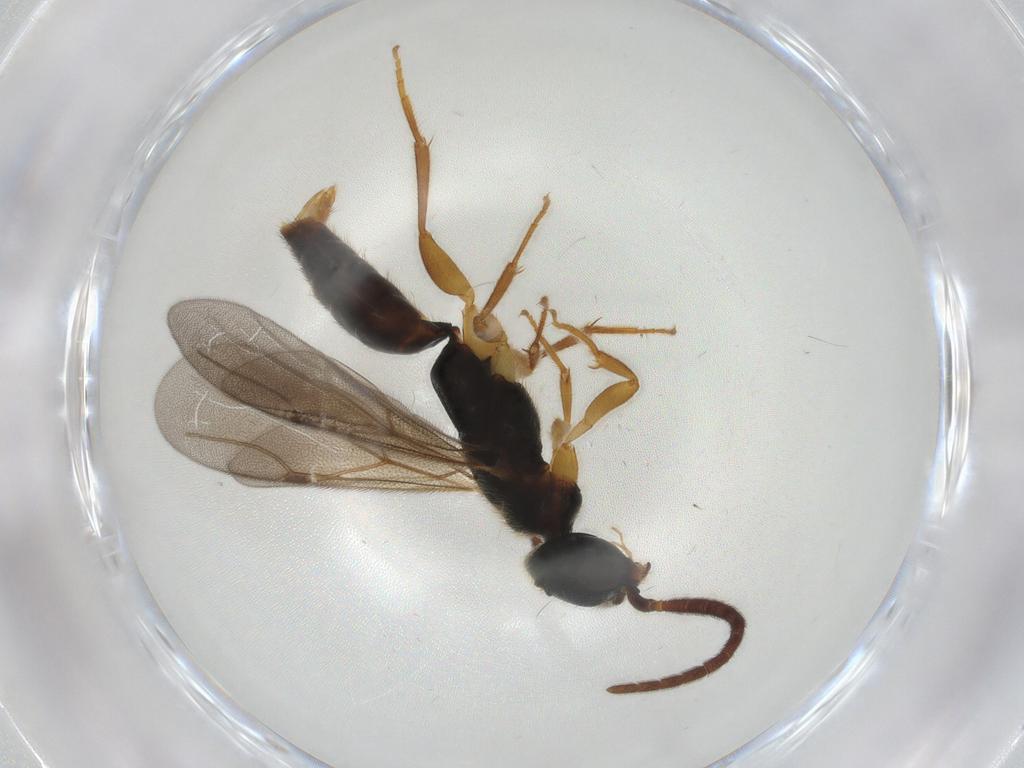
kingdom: Animalia
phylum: Arthropoda
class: Insecta
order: Hymenoptera
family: Bethylidae
